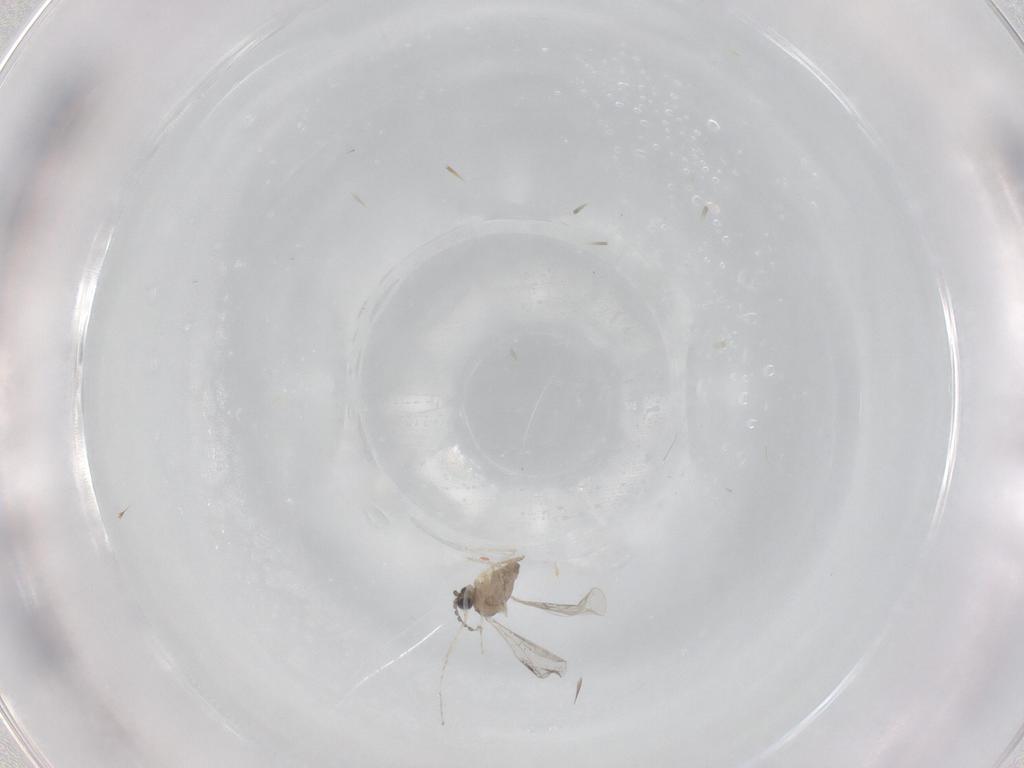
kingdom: Animalia
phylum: Arthropoda
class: Insecta
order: Diptera
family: Cecidomyiidae
